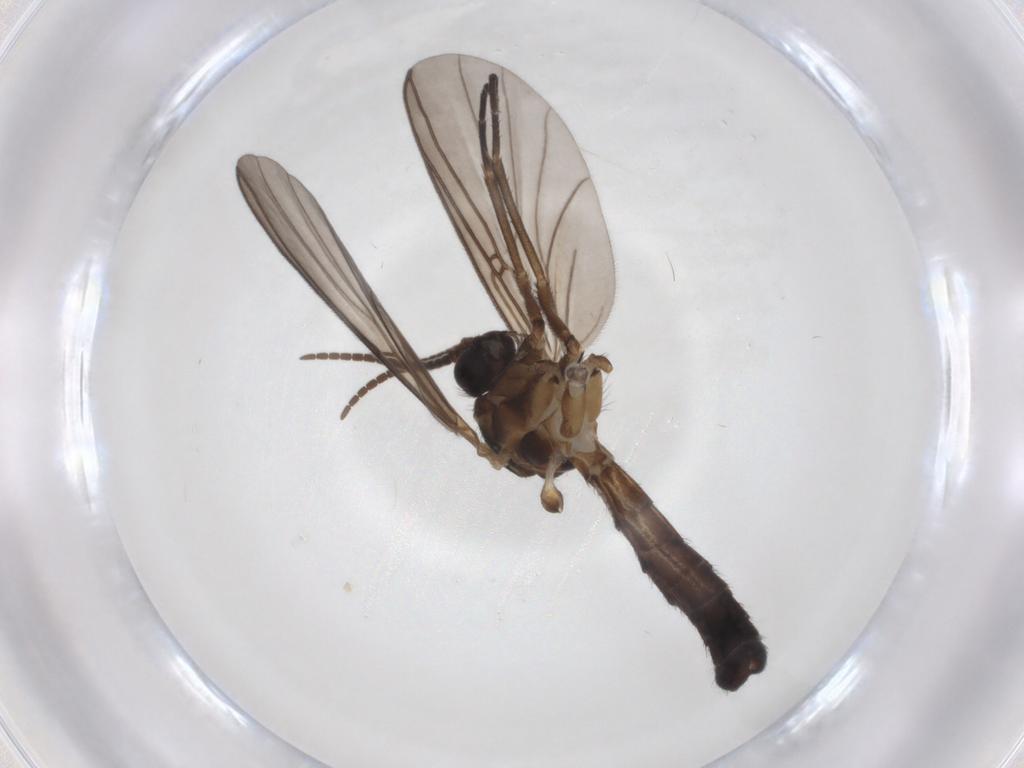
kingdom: Animalia
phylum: Arthropoda
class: Insecta
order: Diptera
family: Anthomyiidae
